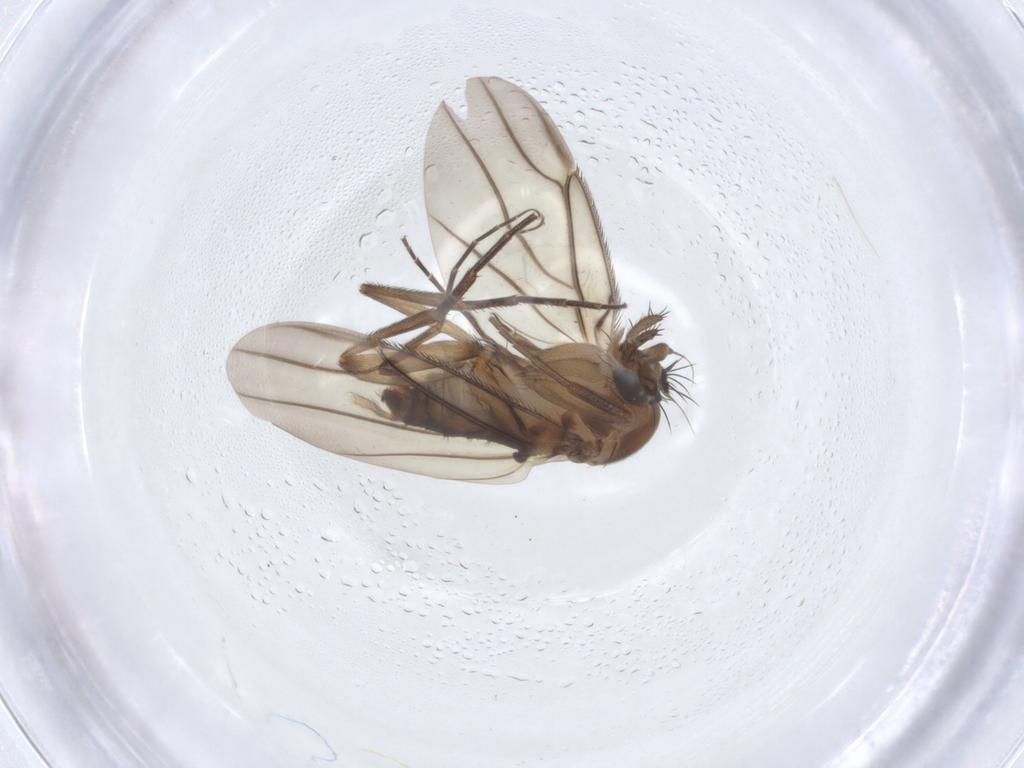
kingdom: Animalia
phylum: Arthropoda
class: Insecta
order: Diptera
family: Phoridae
